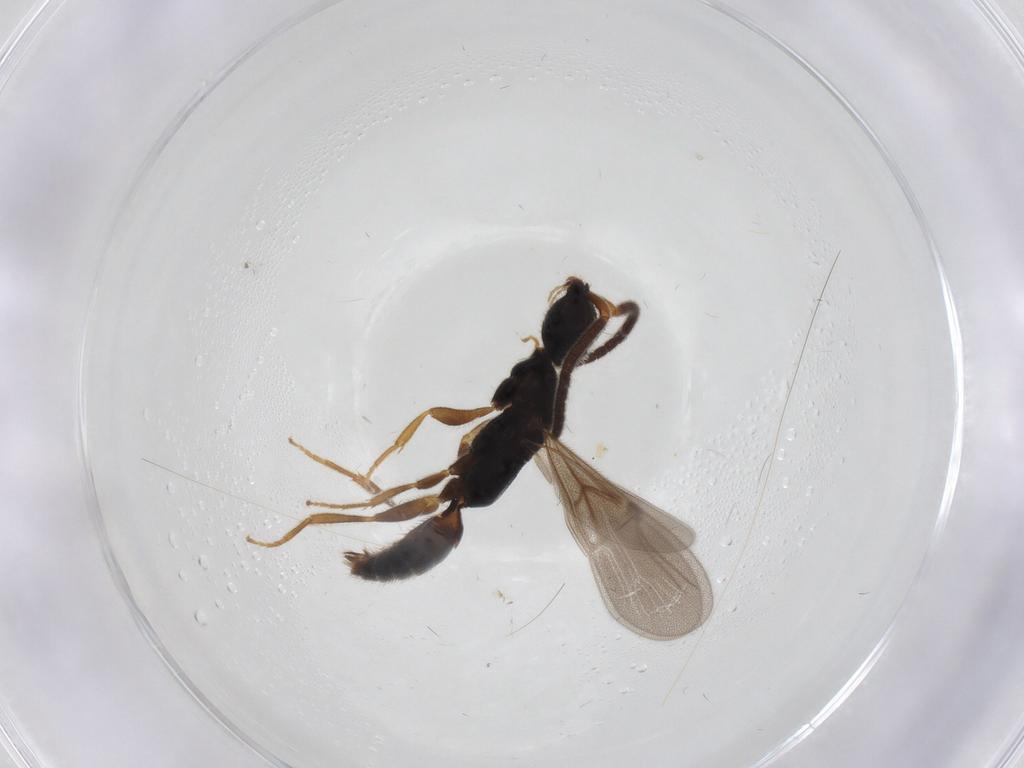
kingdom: Animalia
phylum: Arthropoda
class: Insecta
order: Hymenoptera
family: Bethylidae
